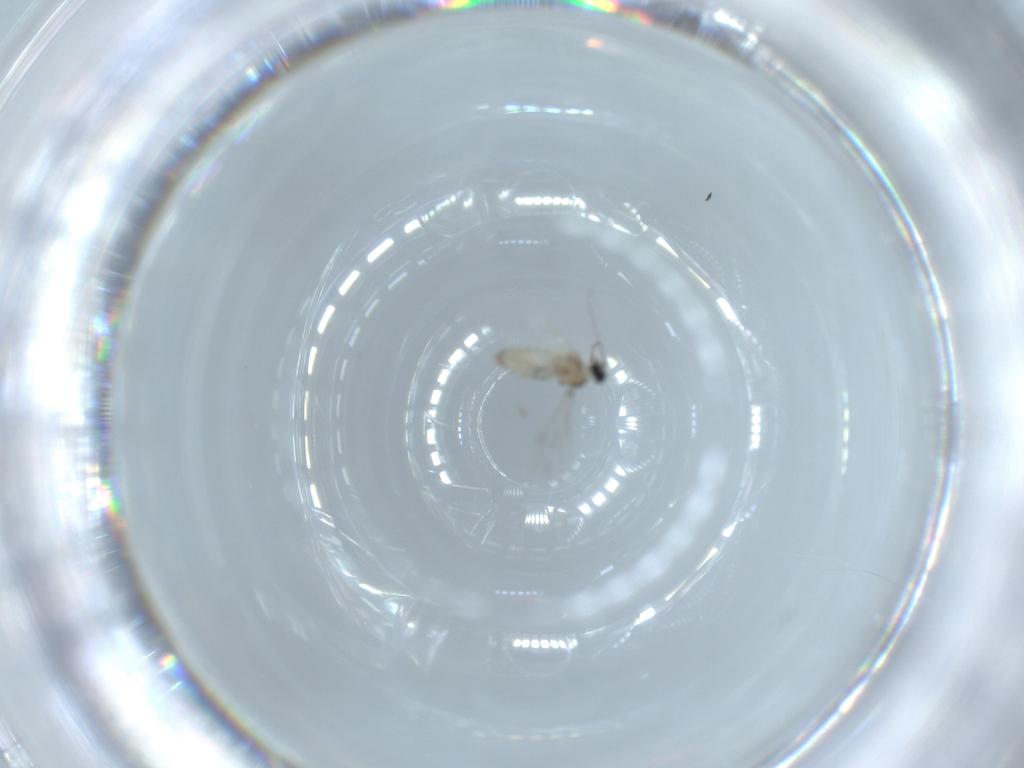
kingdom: Animalia
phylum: Arthropoda
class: Insecta
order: Diptera
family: Cecidomyiidae
